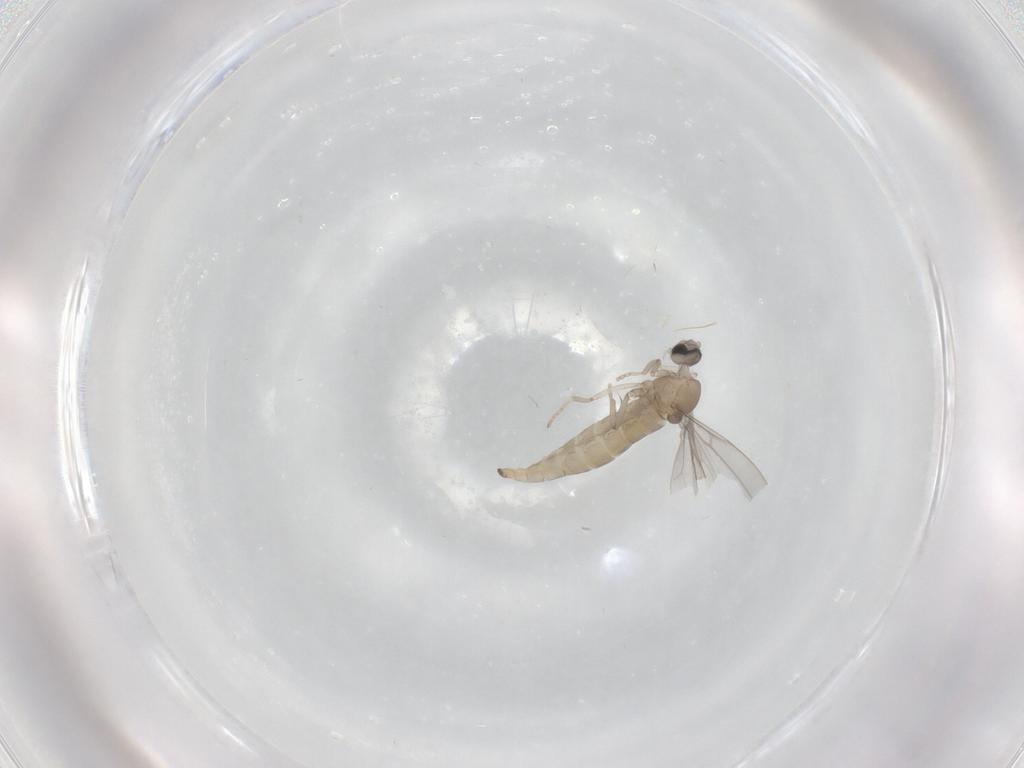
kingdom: Animalia
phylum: Arthropoda
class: Insecta
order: Diptera
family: Cecidomyiidae
